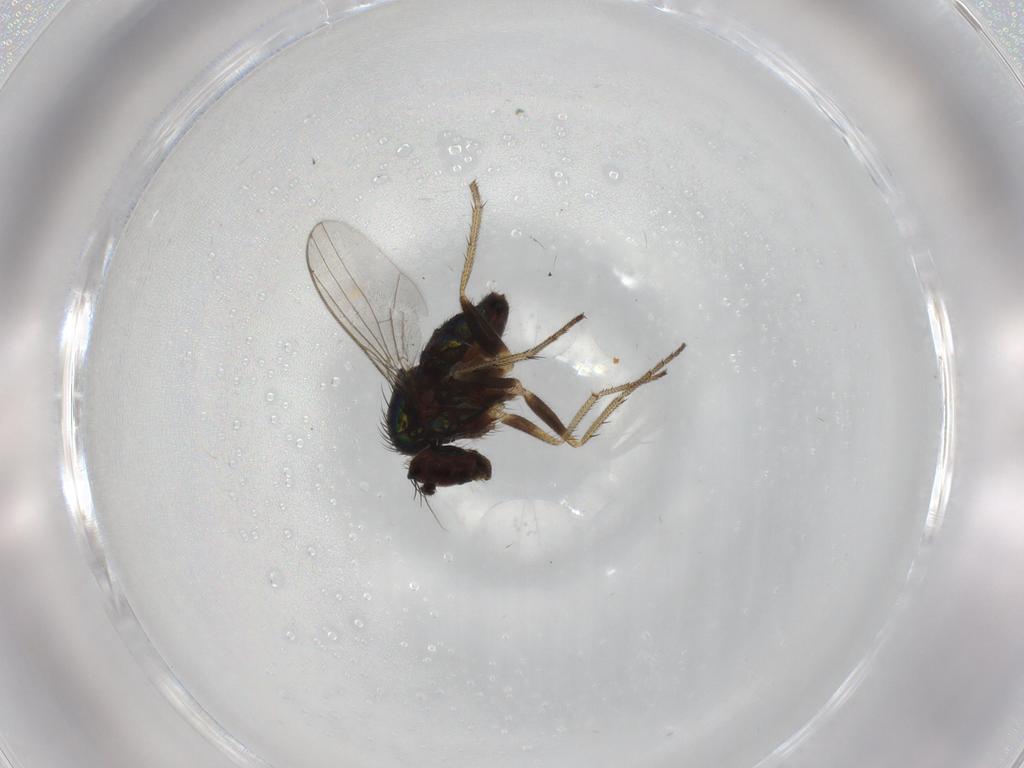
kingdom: Animalia
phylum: Arthropoda
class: Insecta
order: Diptera
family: Dolichopodidae
